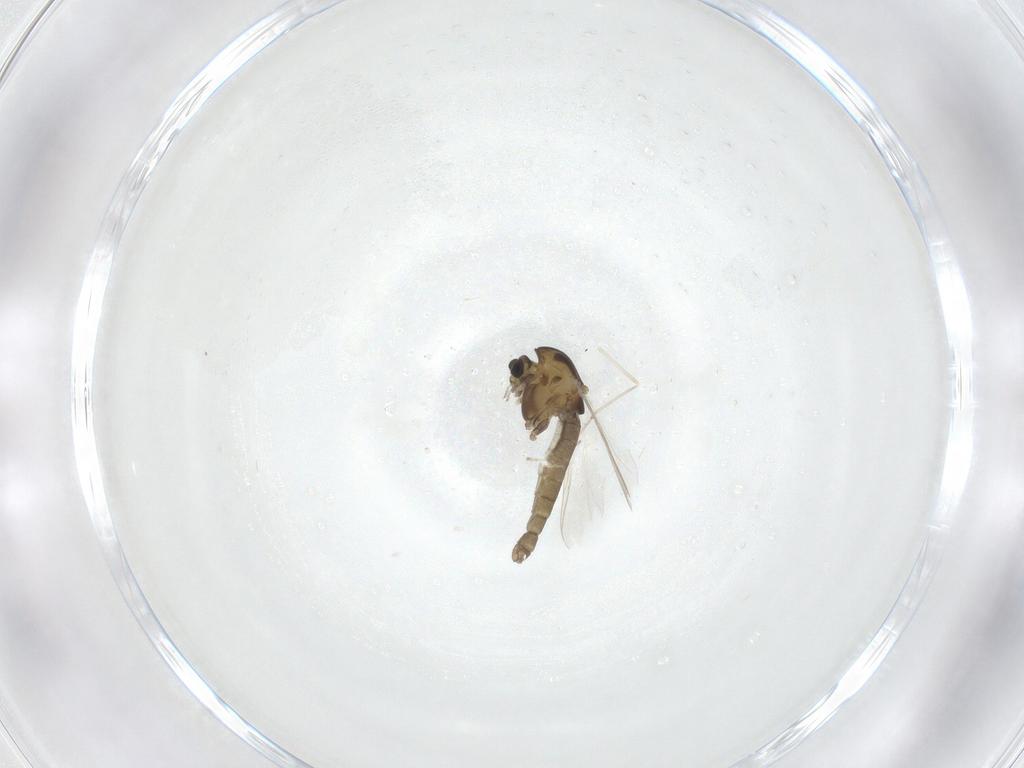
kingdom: Animalia
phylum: Arthropoda
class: Insecta
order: Diptera
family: Chironomidae
